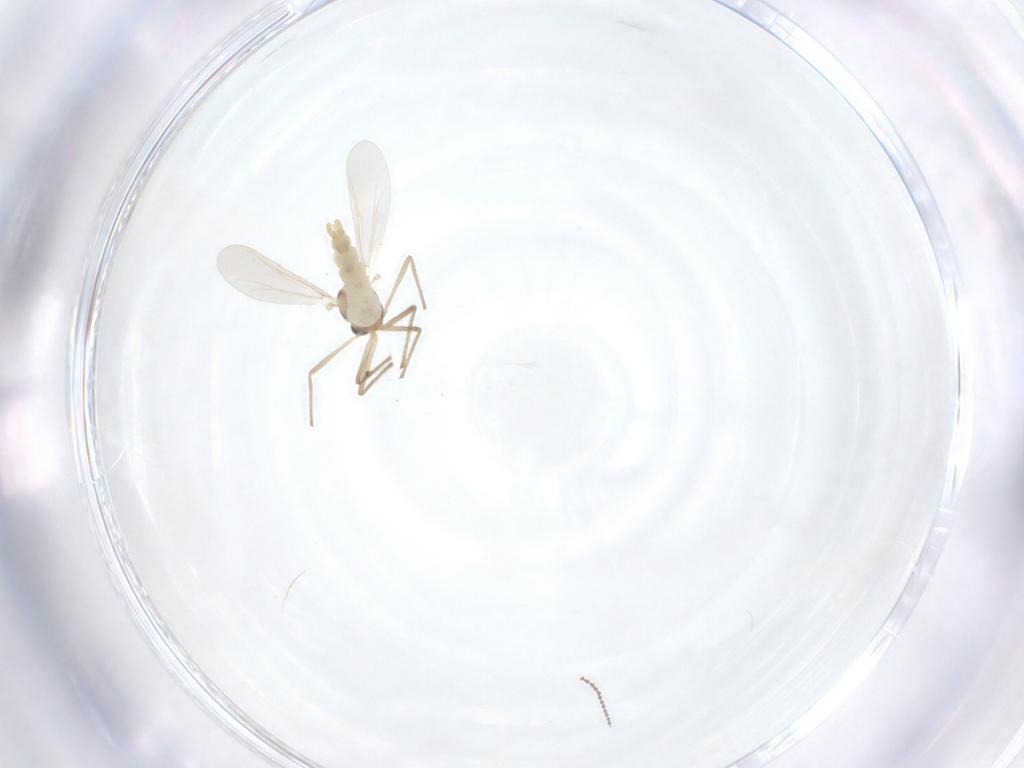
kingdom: Animalia
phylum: Arthropoda
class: Insecta
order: Diptera
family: Cecidomyiidae
